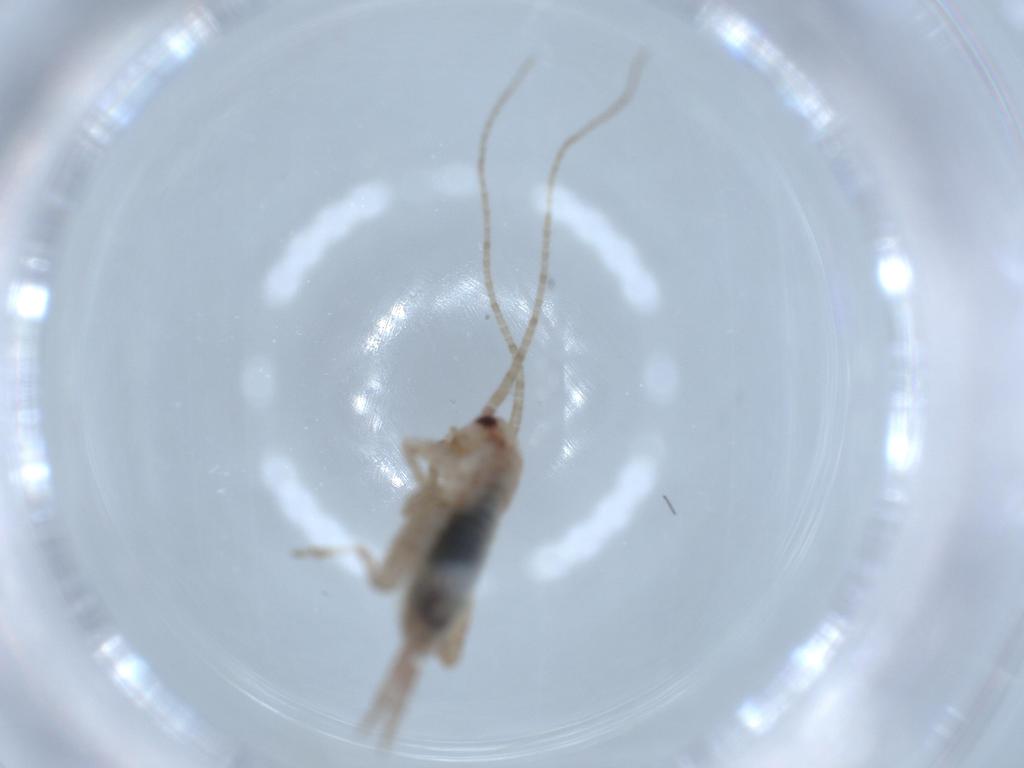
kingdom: Animalia
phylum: Arthropoda
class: Insecta
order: Orthoptera
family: Mogoplistidae
